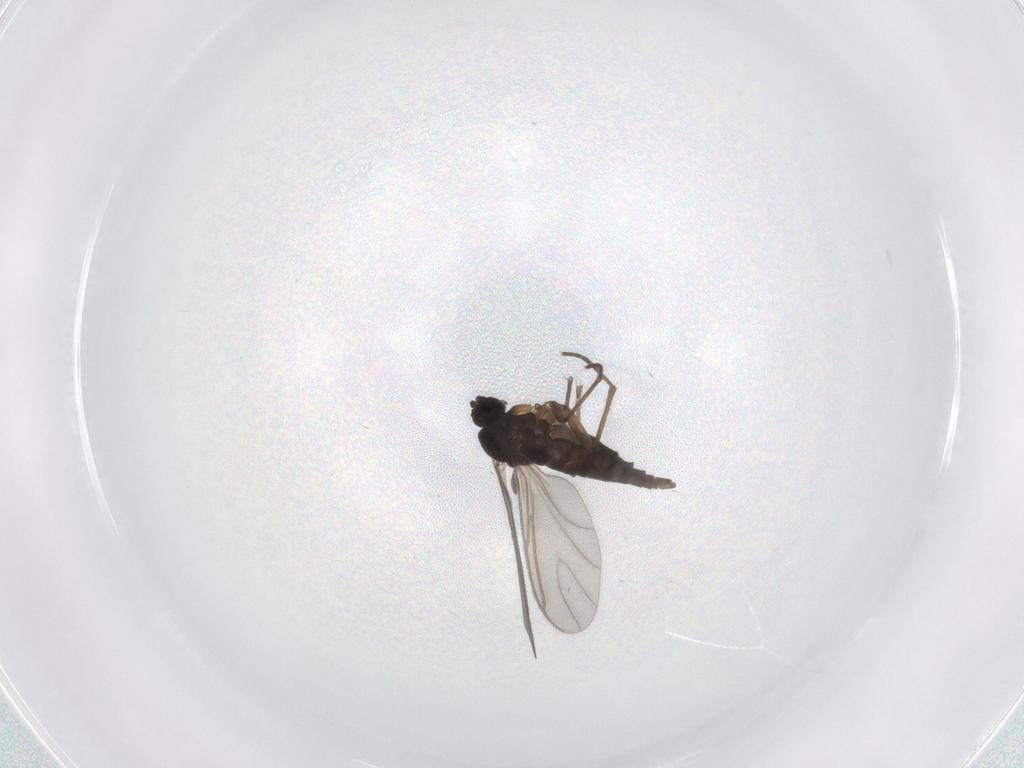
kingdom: Animalia
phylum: Arthropoda
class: Insecta
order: Diptera
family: Sciaridae
